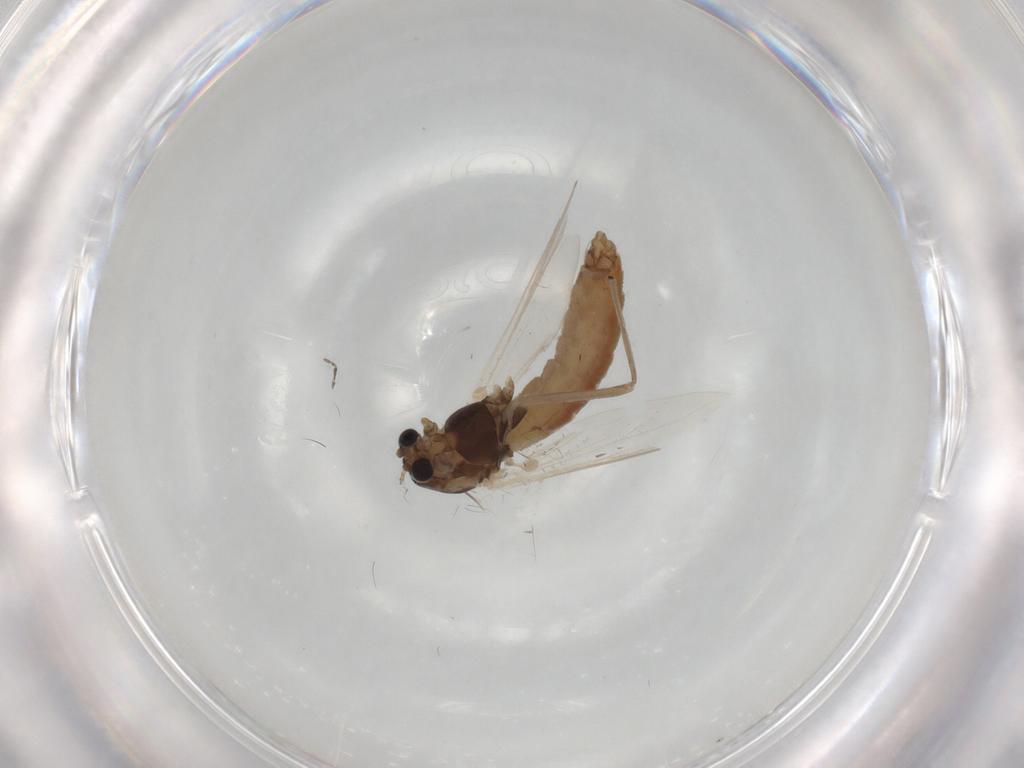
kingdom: Animalia
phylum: Arthropoda
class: Insecta
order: Diptera
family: Chironomidae
